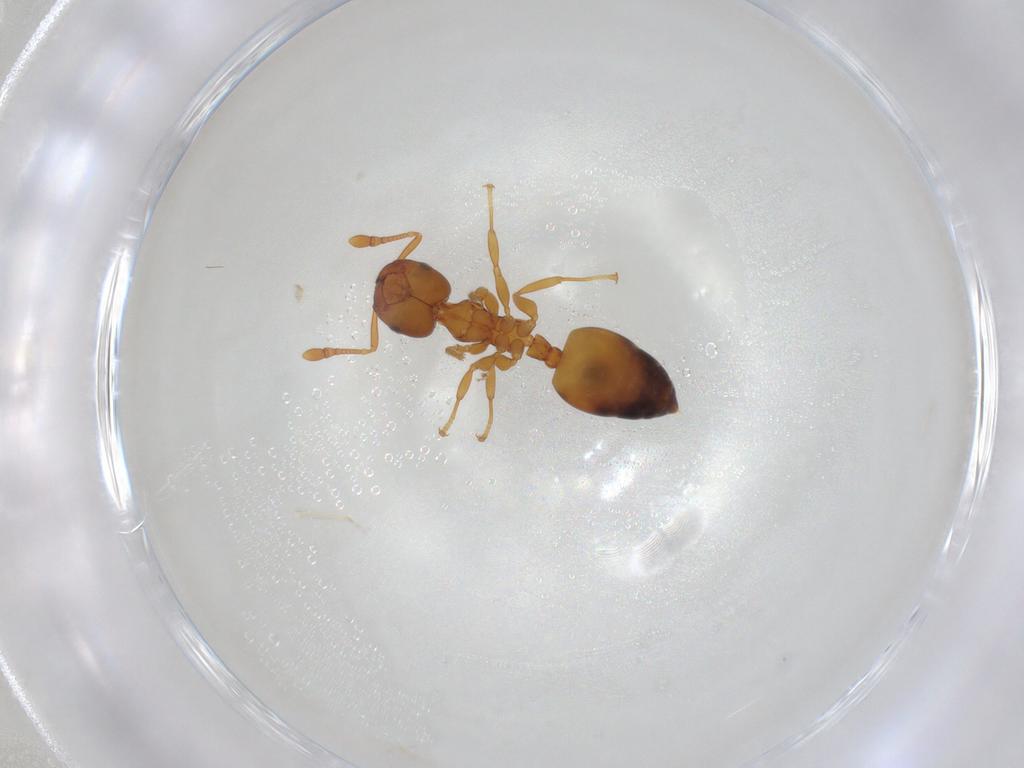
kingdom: Animalia
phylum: Arthropoda
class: Insecta
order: Hymenoptera
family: Formicidae
